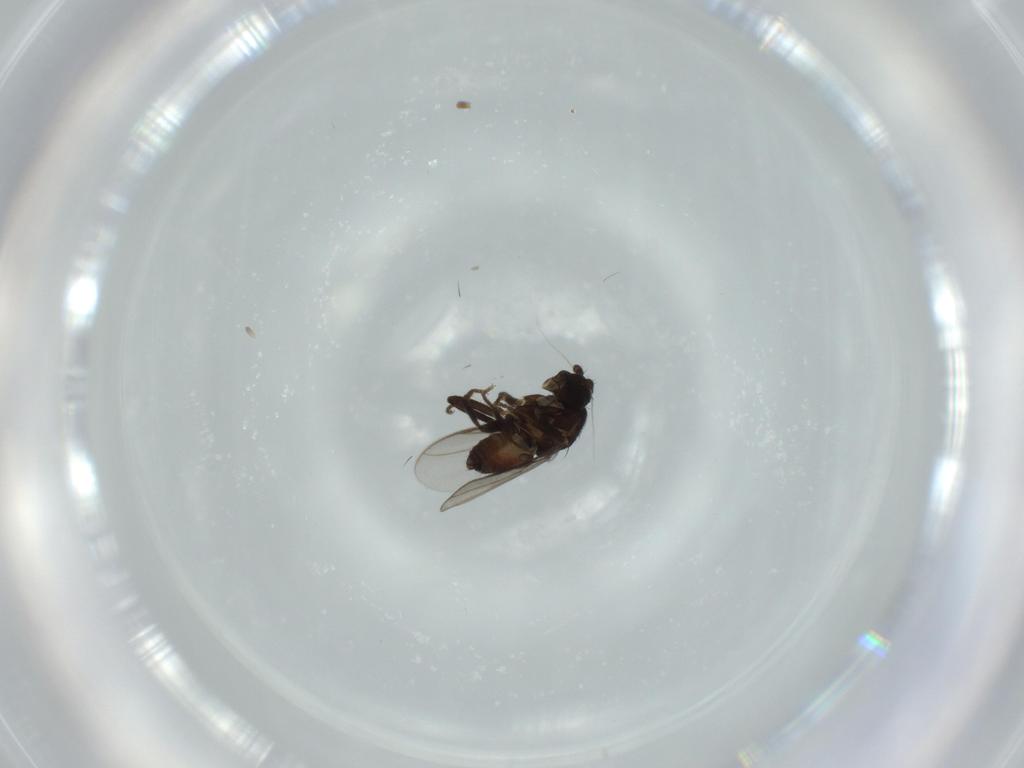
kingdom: Animalia
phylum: Arthropoda
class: Insecta
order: Diptera
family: Sphaeroceridae
